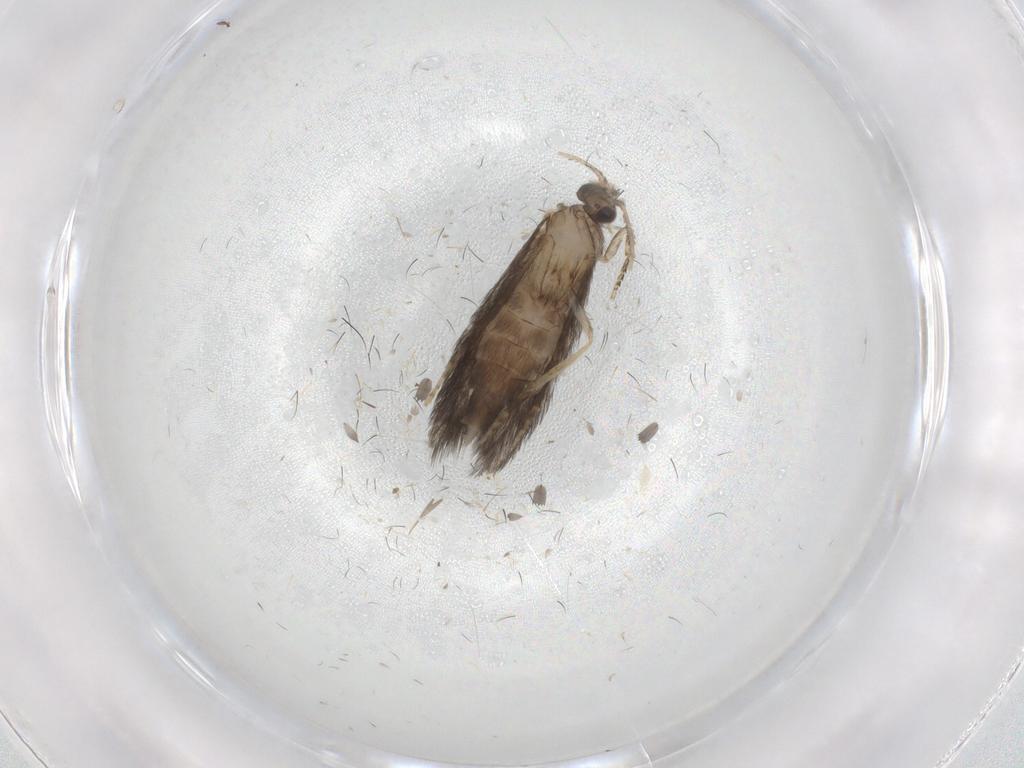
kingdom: Animalia
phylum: Arthropoda
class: Insecta
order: Trichoptera
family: Hydroptilidae
